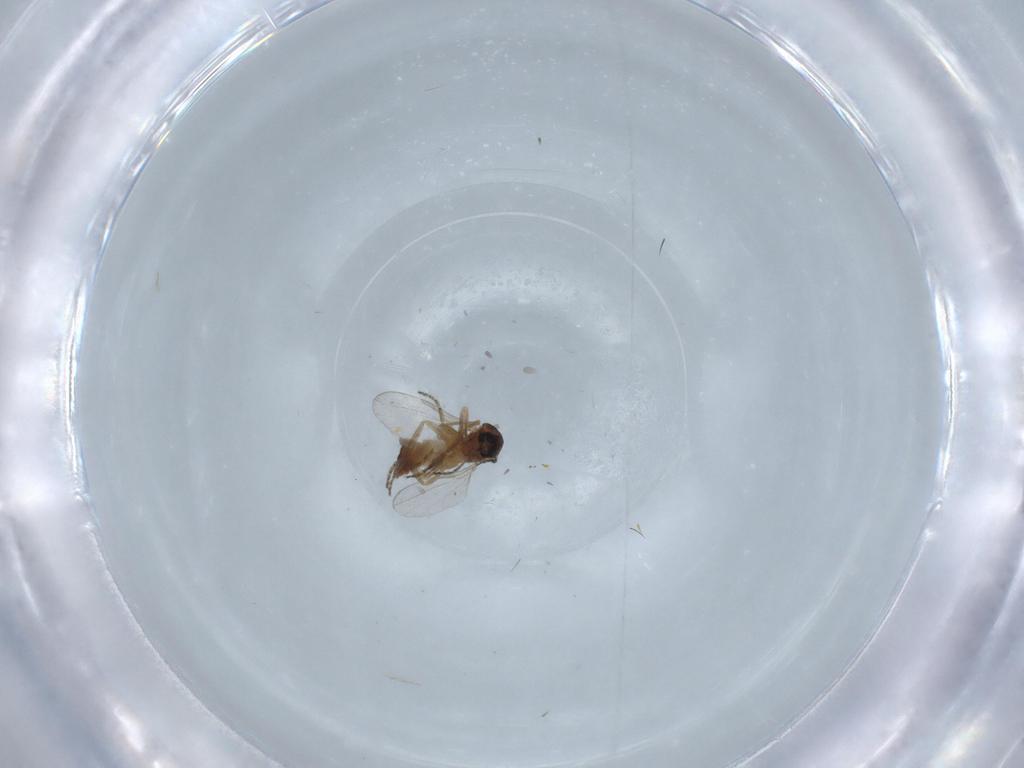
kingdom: Animalia
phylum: Arthropoda
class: Insecta
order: Diptera
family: Ceratopogonidae
